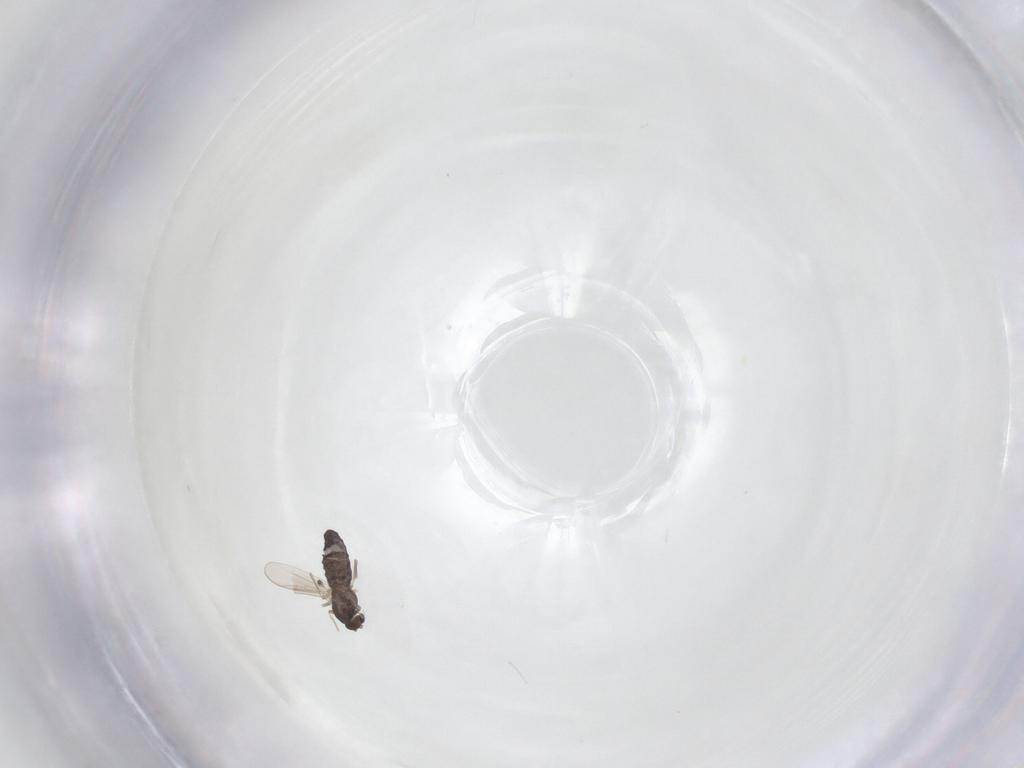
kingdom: Animalia
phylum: Arthropoda
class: Insecta
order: Diptera
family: Chironomidae
